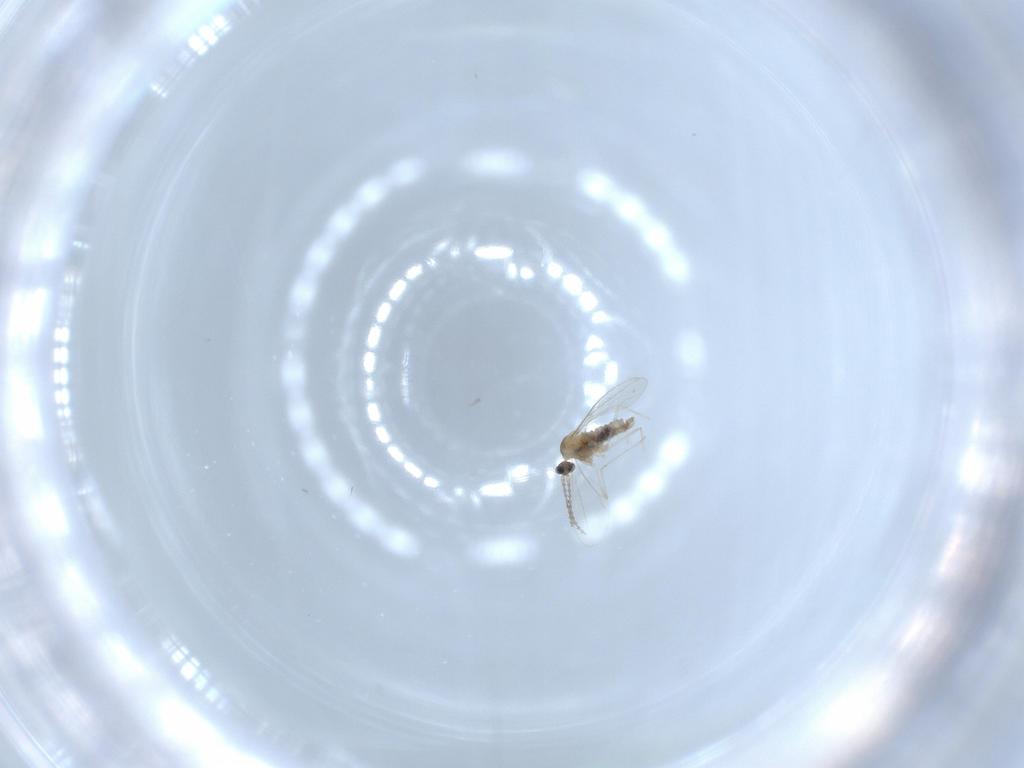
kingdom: Animalia
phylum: Arthropoda
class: Insecta
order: Diptera
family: Cecidomyiidae
